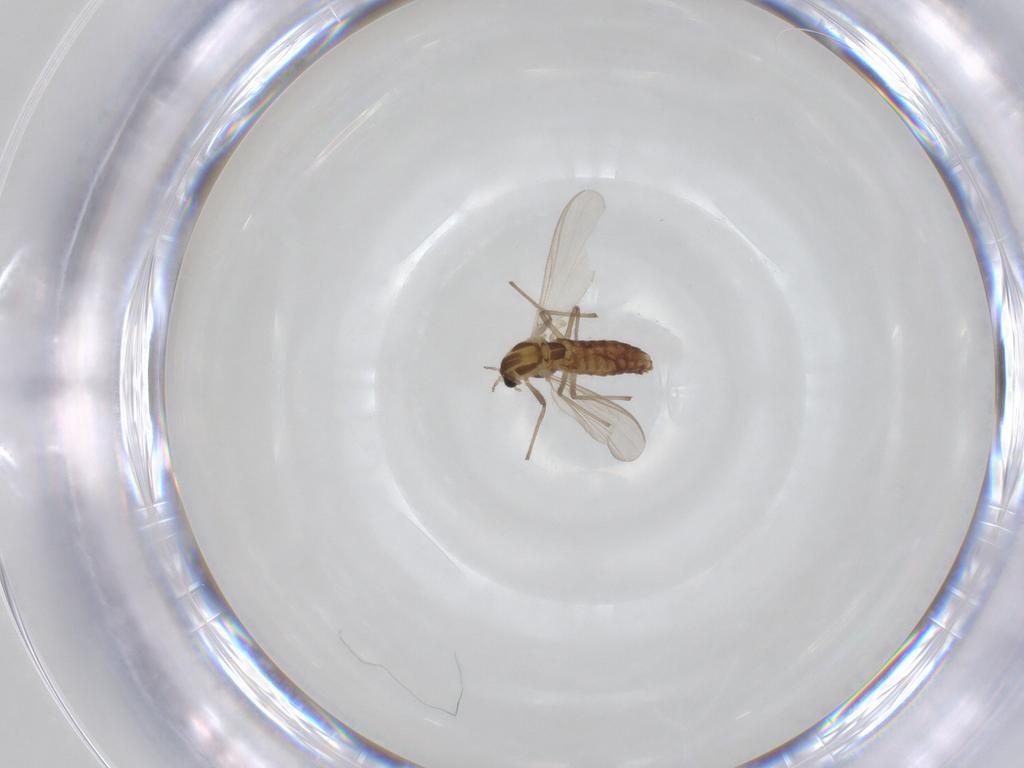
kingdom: Animalia
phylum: Arthropoda
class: Insecta
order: Diptera
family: Chironomidae
